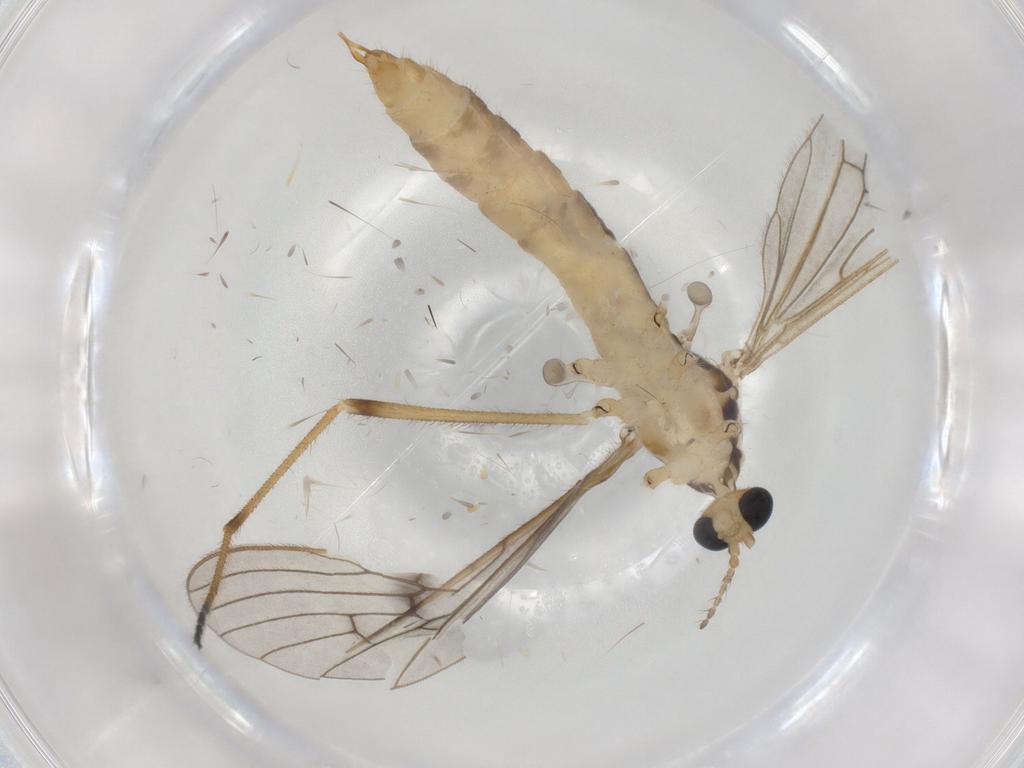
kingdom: Animalia
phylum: Arthropoda
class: Insecta
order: Diptera
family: Limoniidae
